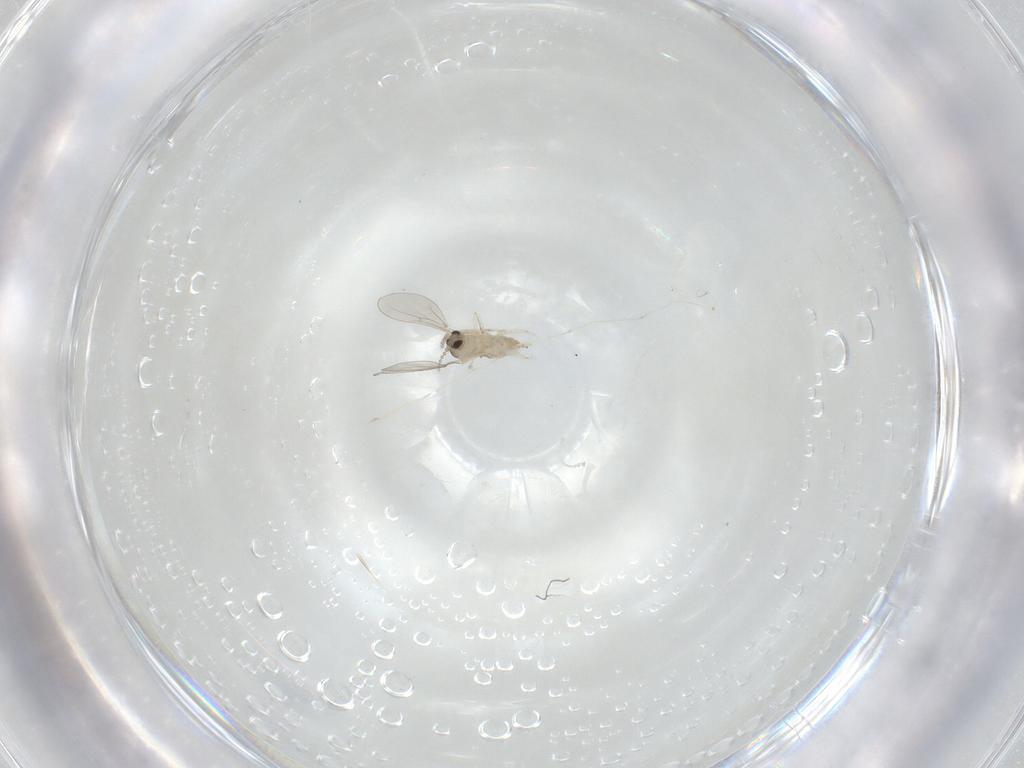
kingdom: Animalia
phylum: Arthropoda
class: Insecta
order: Diptera
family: Cecidomyiidae
